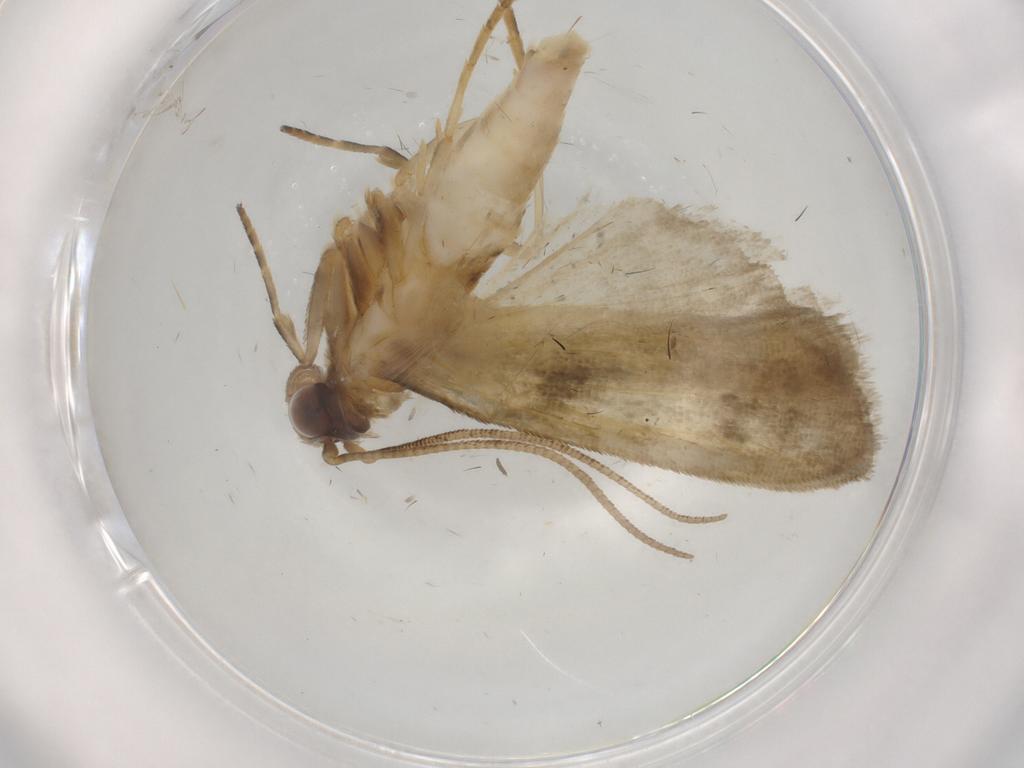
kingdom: Animalia
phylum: Arthropoda
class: Insecta
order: Lepidoptera
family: Noctuidae
